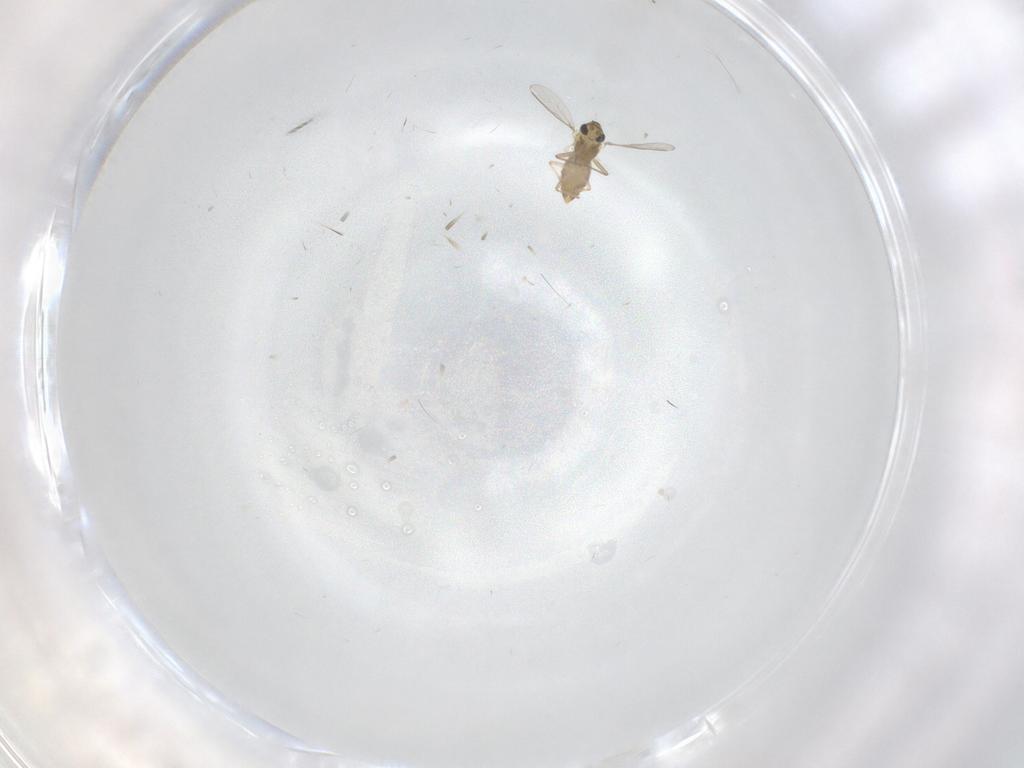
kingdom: Animalia
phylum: Arthropoda
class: Insecta
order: Diptera
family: Chironomidae
